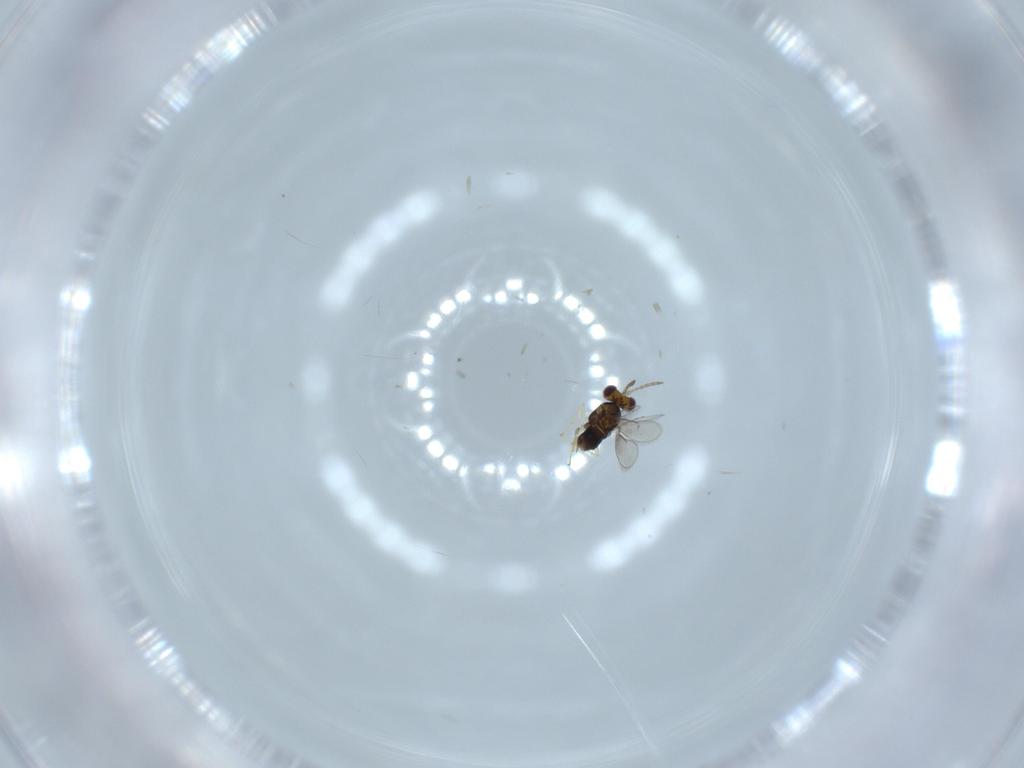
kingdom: Animalia
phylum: Arthropoda
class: Insecta
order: Hymenoptera
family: Aphelinidae
